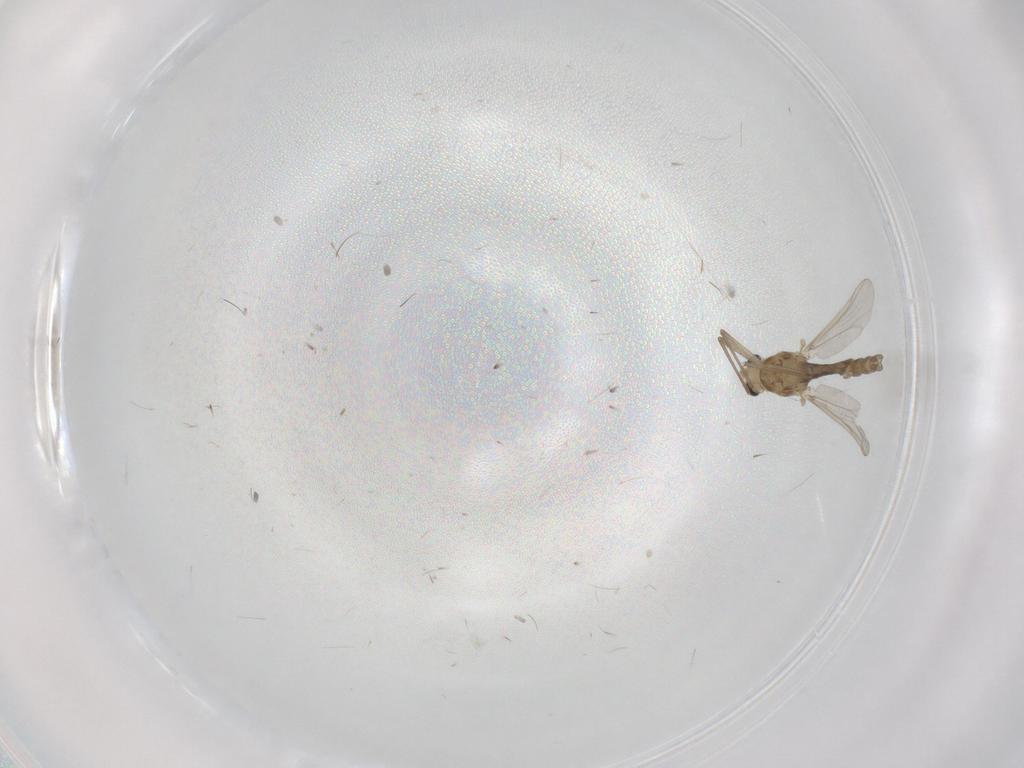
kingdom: Animalia
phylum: Arthropoda
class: Insecta
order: Diptera
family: Chironomidae
